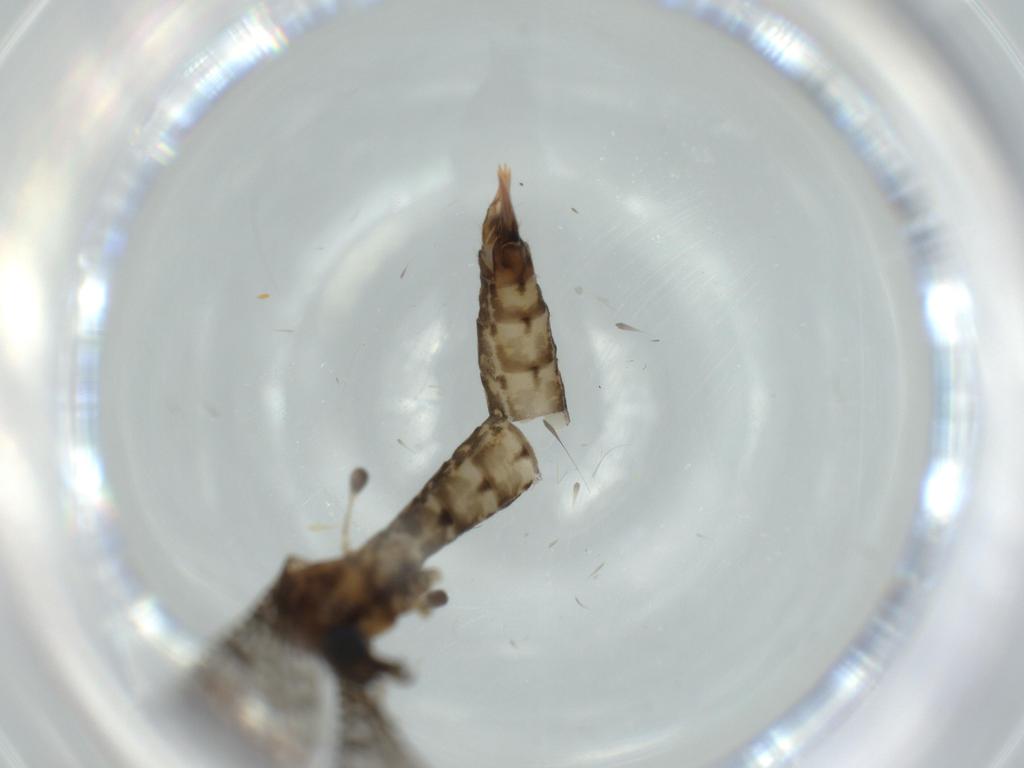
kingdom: Animalia
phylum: Arthropoda
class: Insecta
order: Diptera
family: Limoniidae
